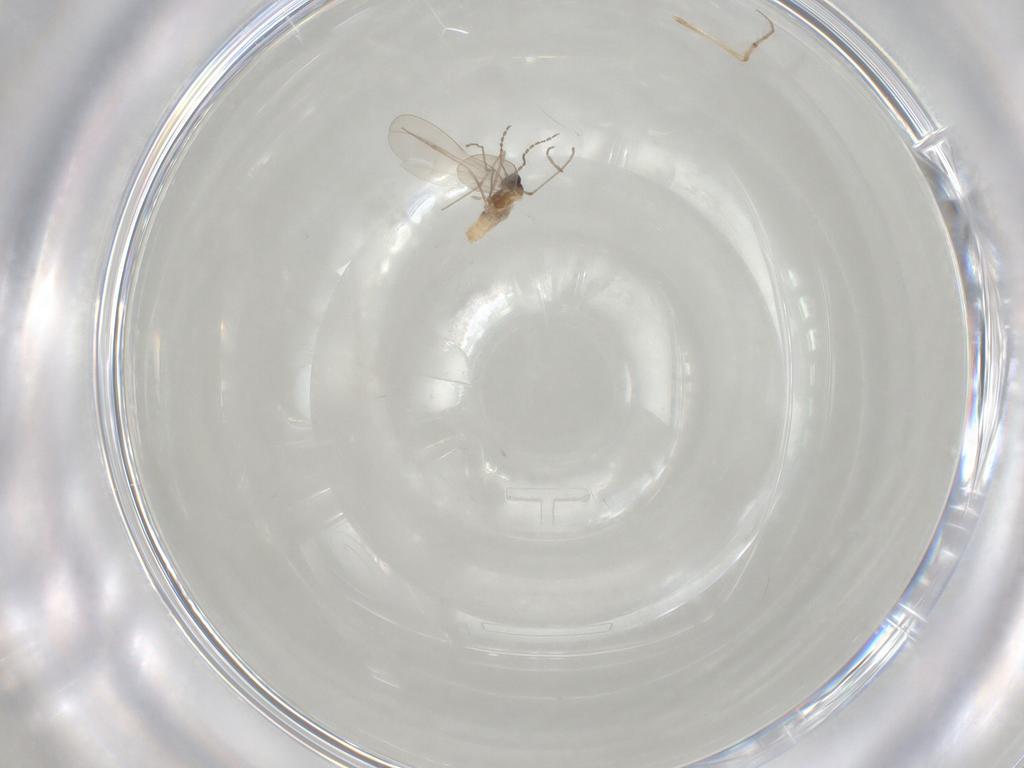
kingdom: Animalia
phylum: Arthropoda
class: Insecta
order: Diptera
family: Cecidomyiidae
